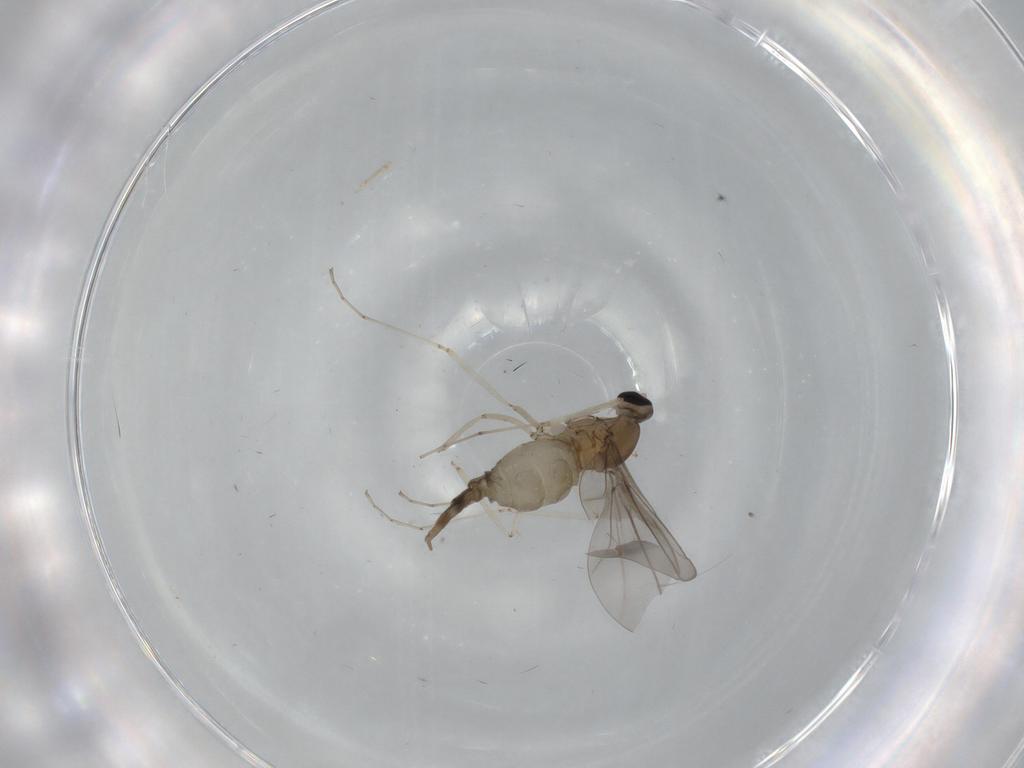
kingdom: Animalia
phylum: Arthropoda
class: Insecta
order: Diptera
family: Cecidomyiidae
